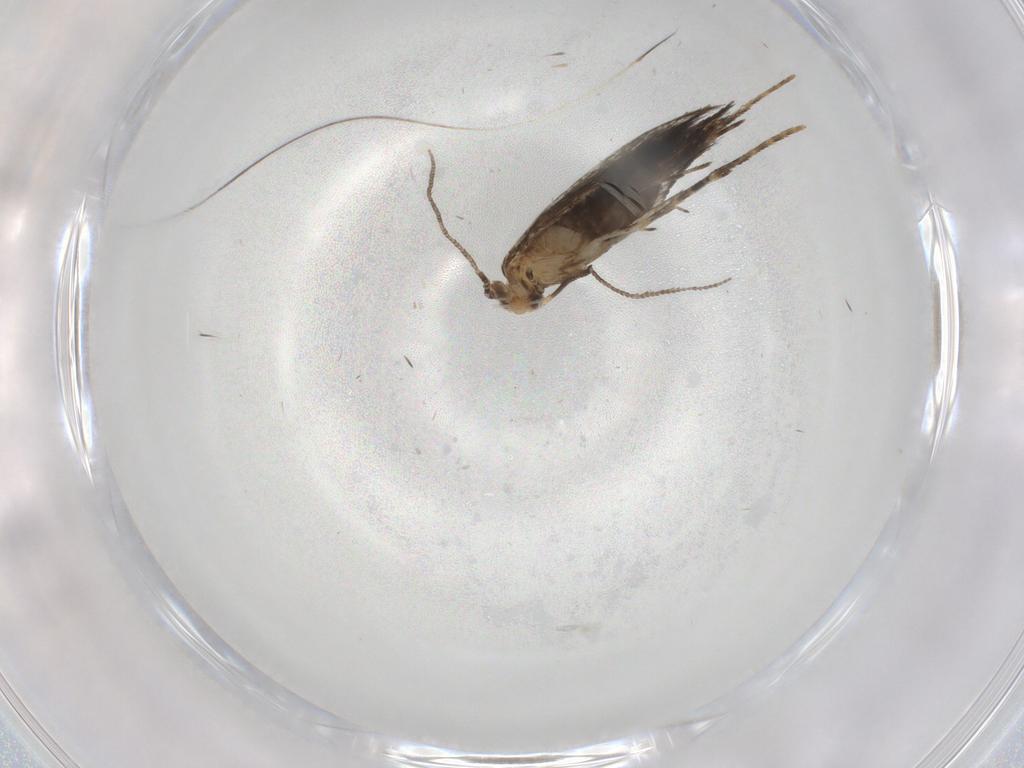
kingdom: Animalia
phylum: Arthropoda
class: Insecta
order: Lepidoptera
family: Tineidae
